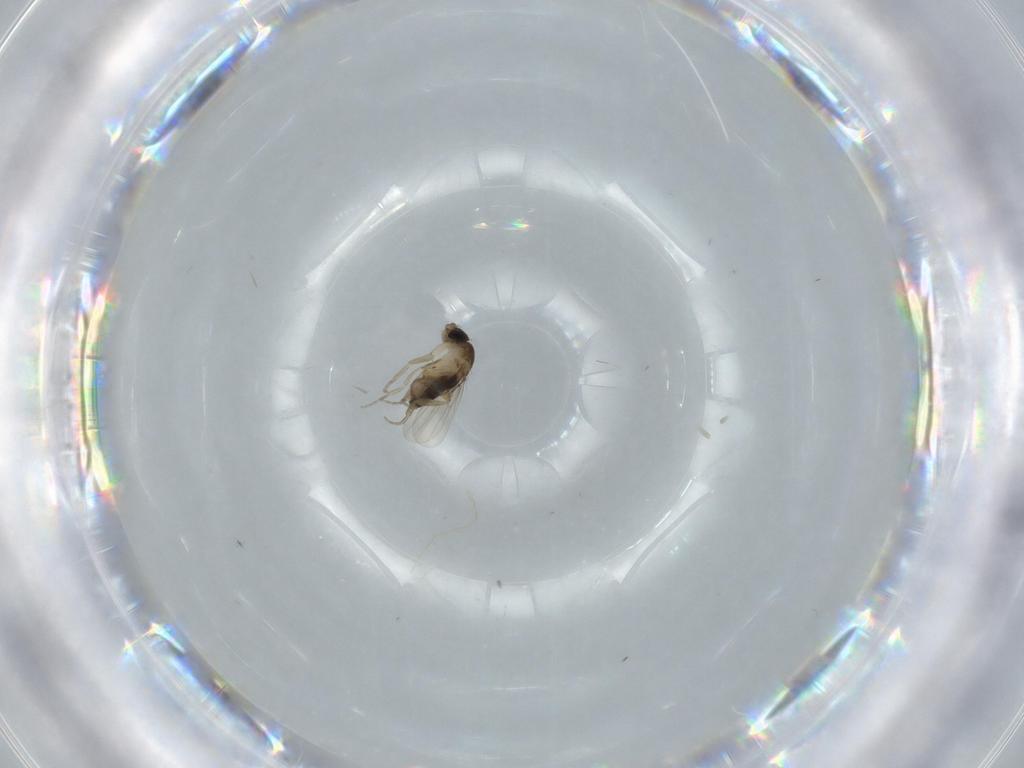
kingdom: Animalia
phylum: Arthropoda
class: Insecta
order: Diptera
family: Phoridae
